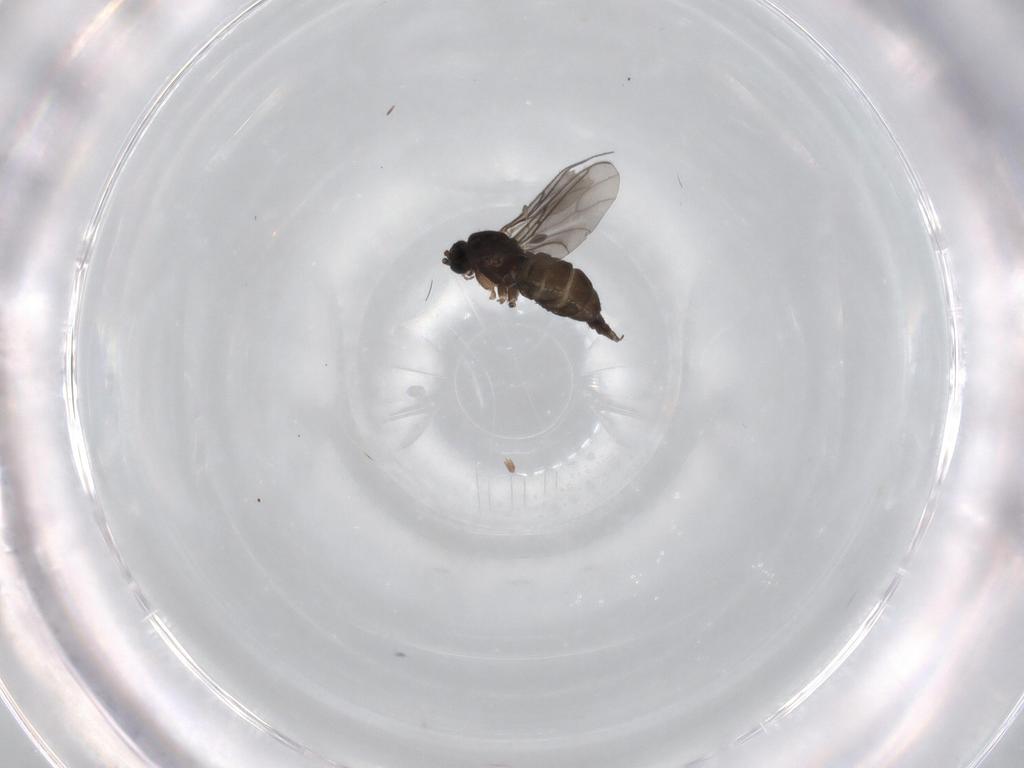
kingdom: Animalia
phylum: Arthropoda
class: Insecta
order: Diptera
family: Sciaridae
